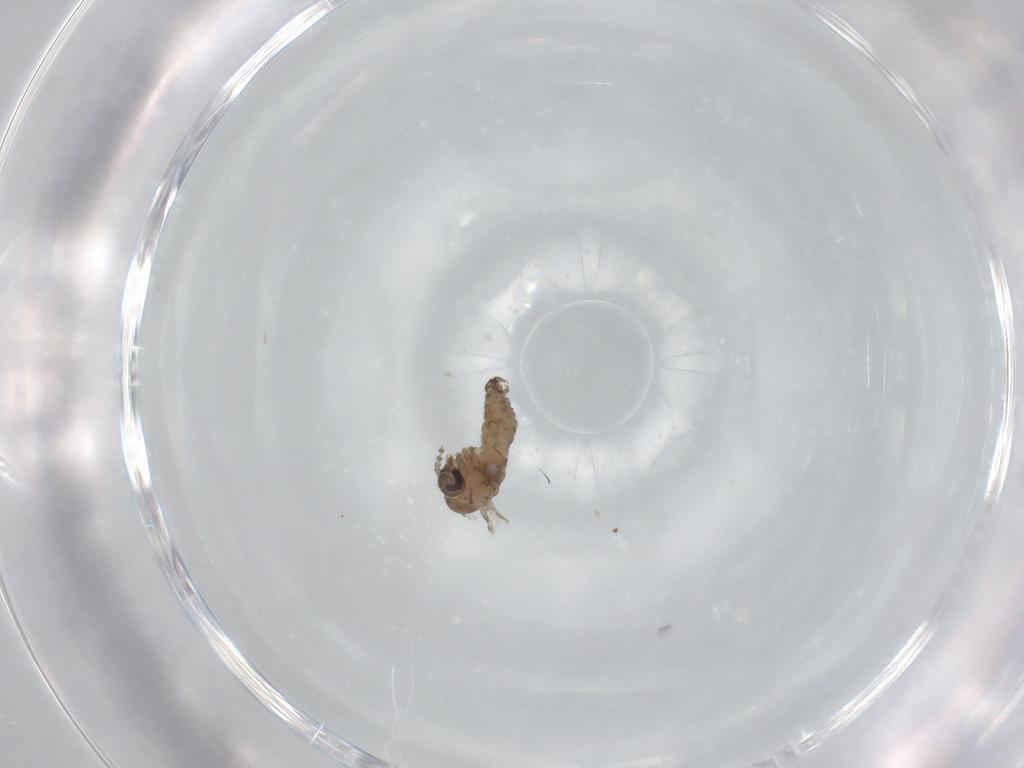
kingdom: Animalia
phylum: Arthropoda
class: Insecta
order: Diptera
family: Psychodidae
